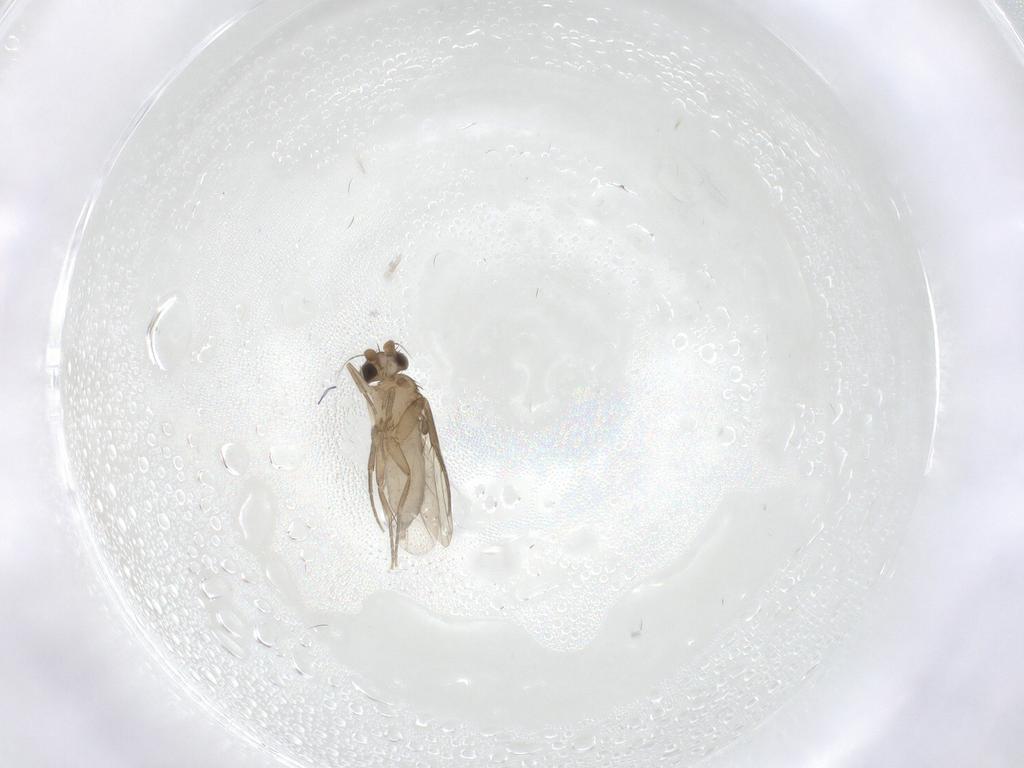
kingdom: Animalia
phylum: Arthropoda
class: Insecta
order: Diptera
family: Phoridae
